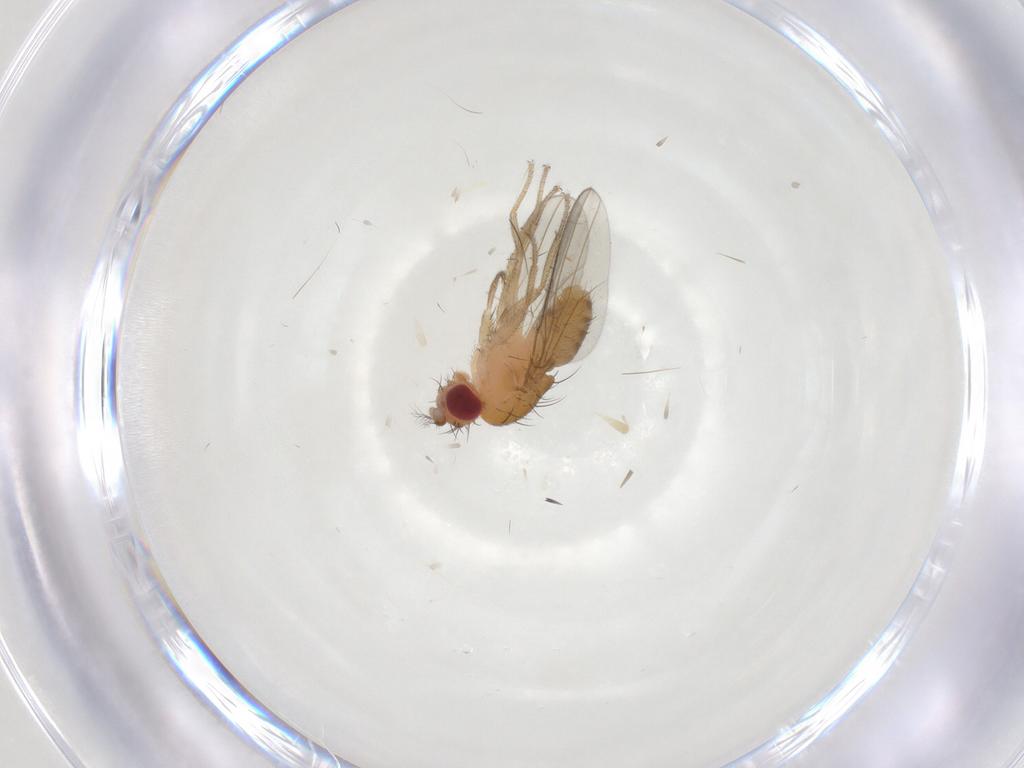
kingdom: Animalia
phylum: Arthropoda
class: Insecta
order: Diptera
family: Drosophilidae
